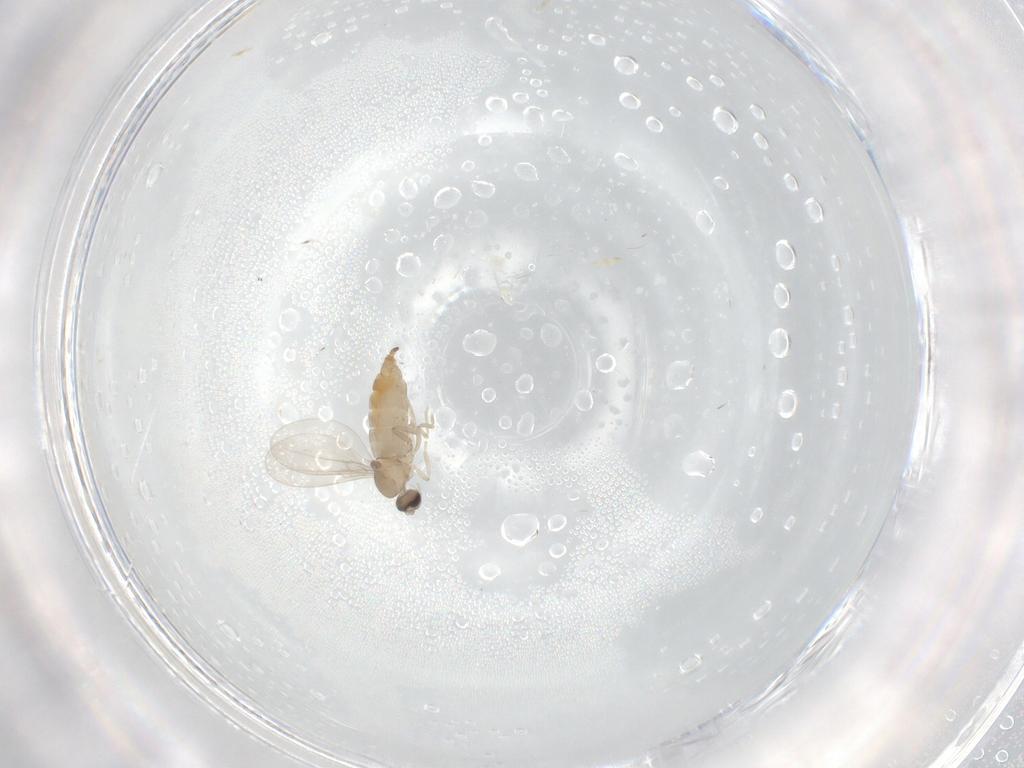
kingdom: Animalia
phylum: Arthropoda
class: Insecta
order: Diptera
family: Cecidomyiidae
